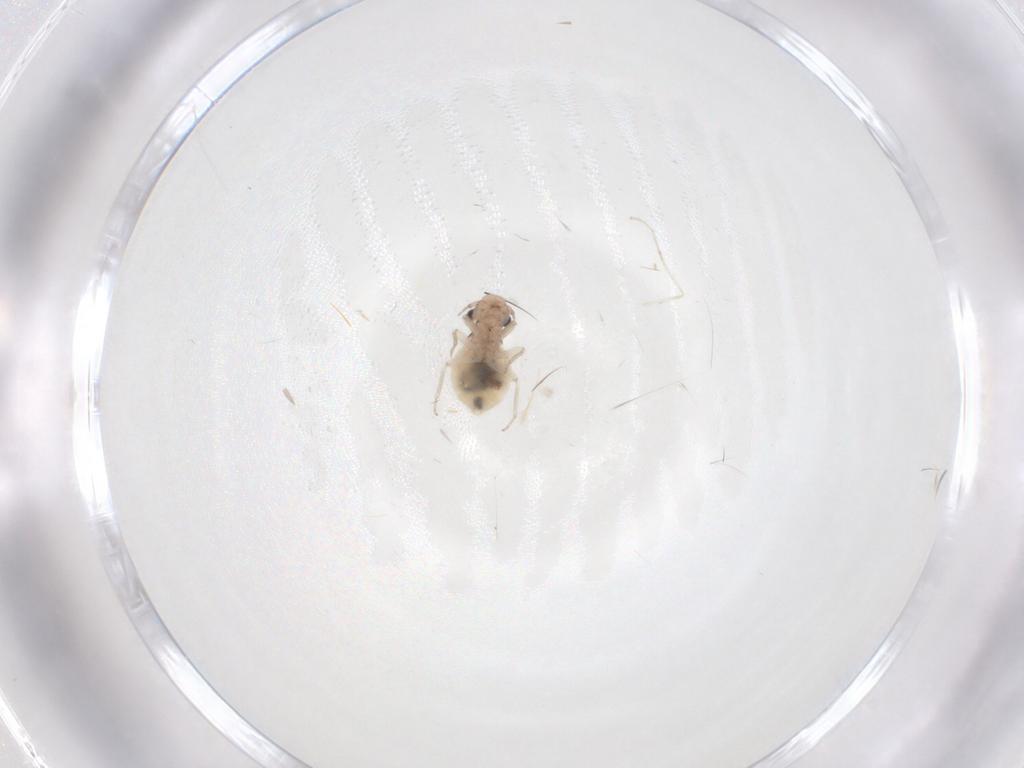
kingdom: Animalia
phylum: Arthropoda
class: Insecta
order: Psocodea
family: Trogiidae
